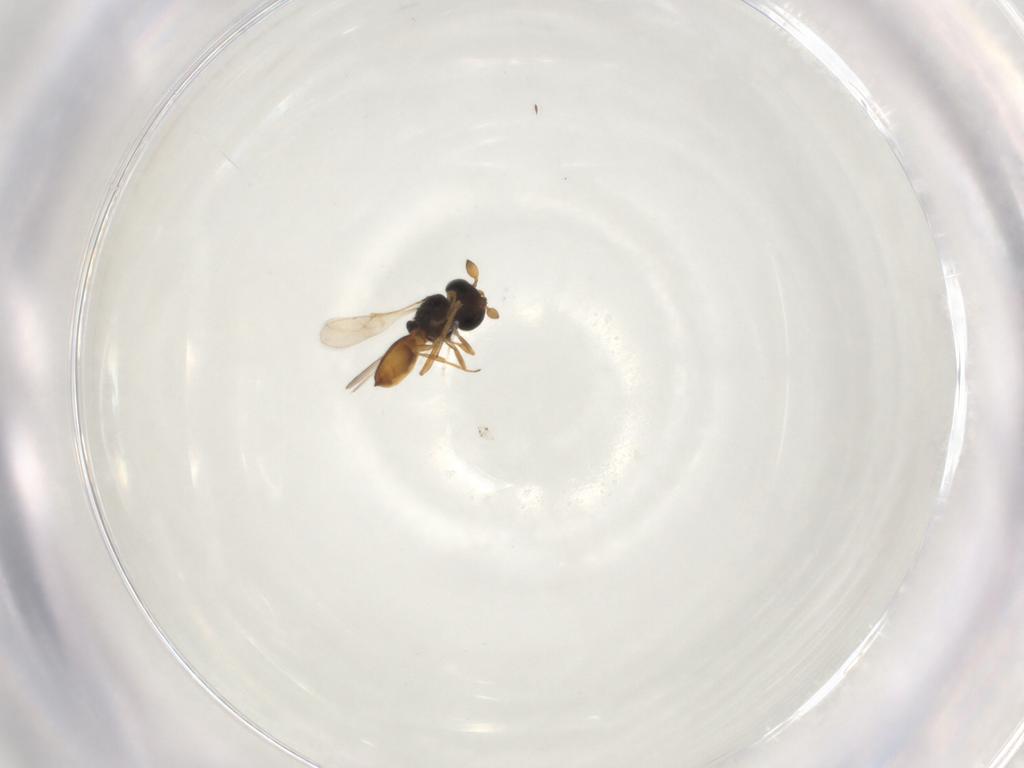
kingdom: Animalia
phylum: Arthropoda
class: Insecta
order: Hymenoptera
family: Scelionidae
